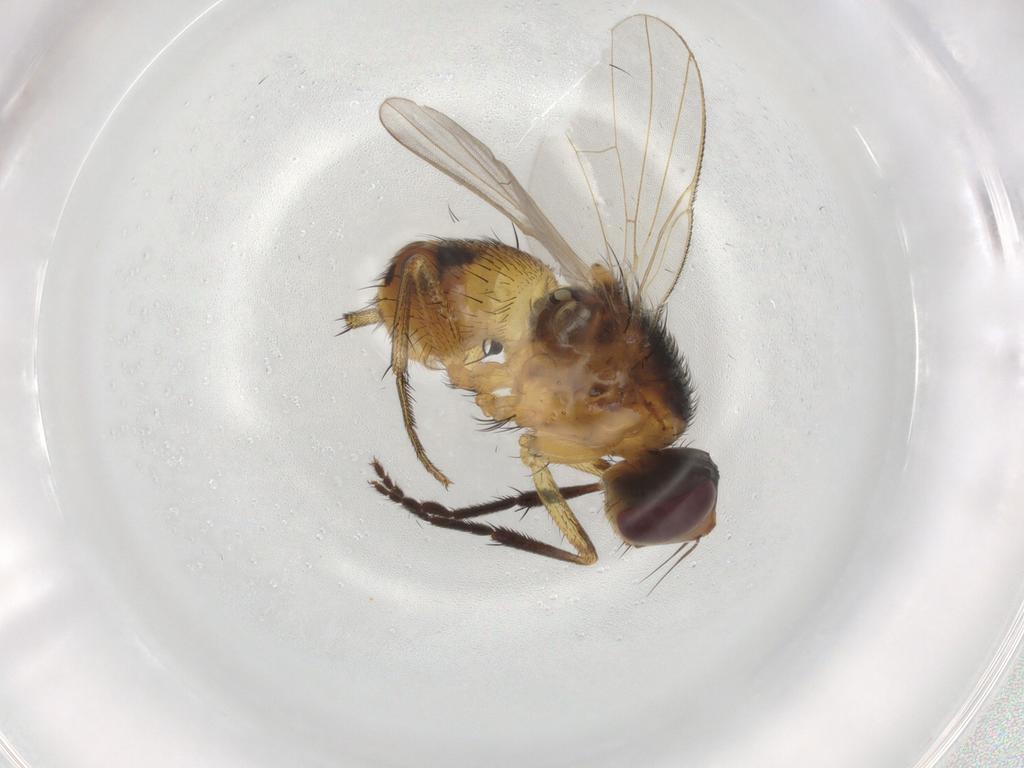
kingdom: Animalia
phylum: Arthropoda
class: Insecta
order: Diptera
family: Muscidae
